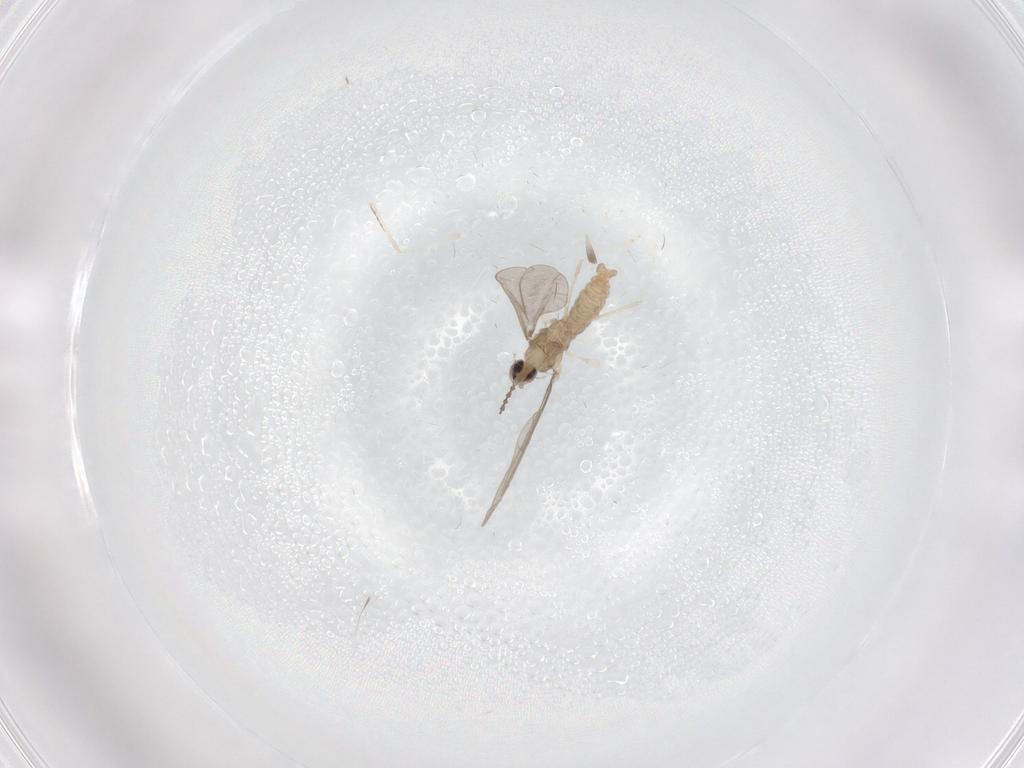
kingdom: Animalia
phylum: Arthropoda
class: Insecta
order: Diptera
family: Cecidomyiidae
